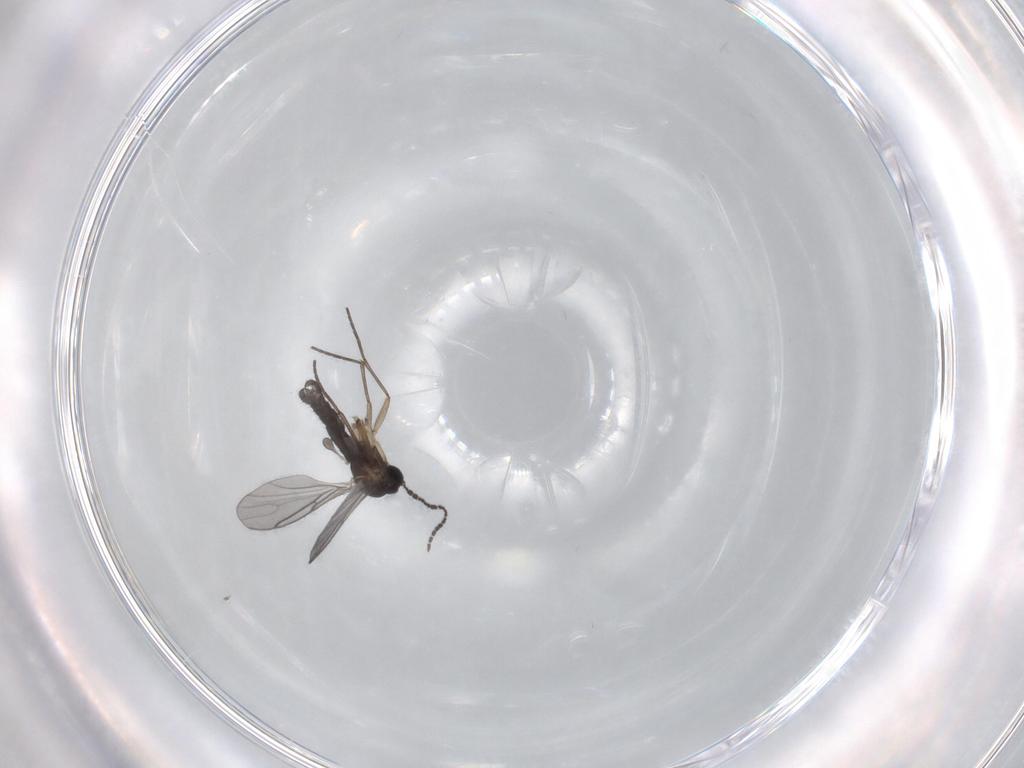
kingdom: Animalia
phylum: Arthropoda
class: Insecta
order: Diptera
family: Sciaridae
